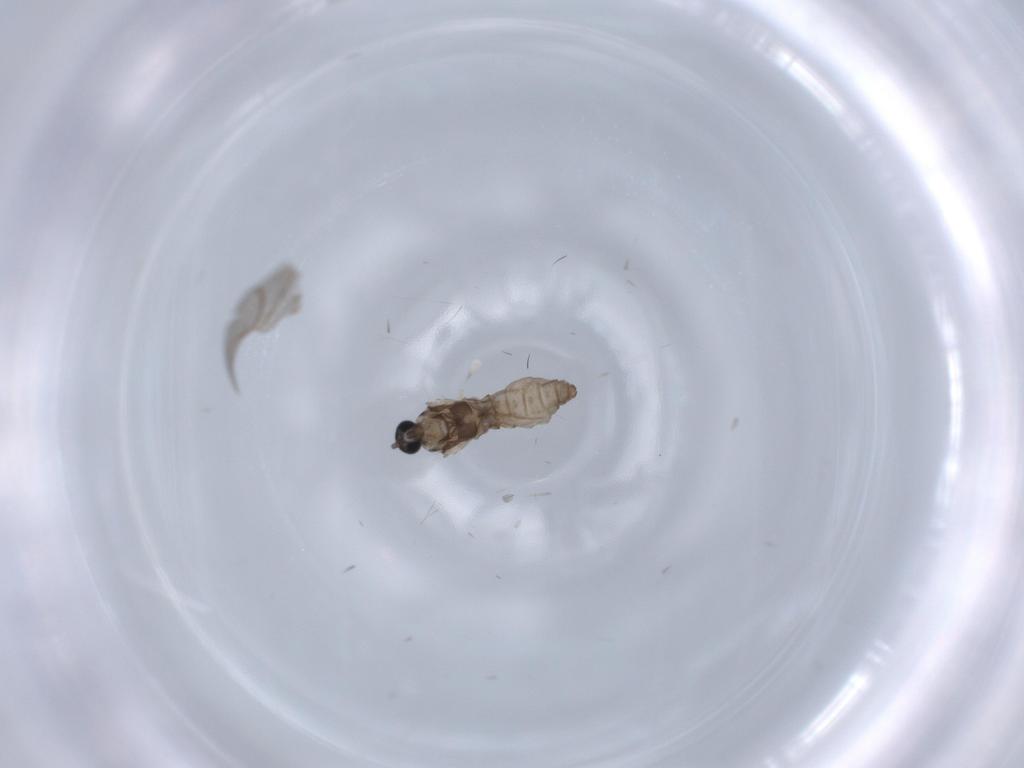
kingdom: Animalia
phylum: Arthropoda
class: Insecta
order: Diptera
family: Cecidomyiidae
